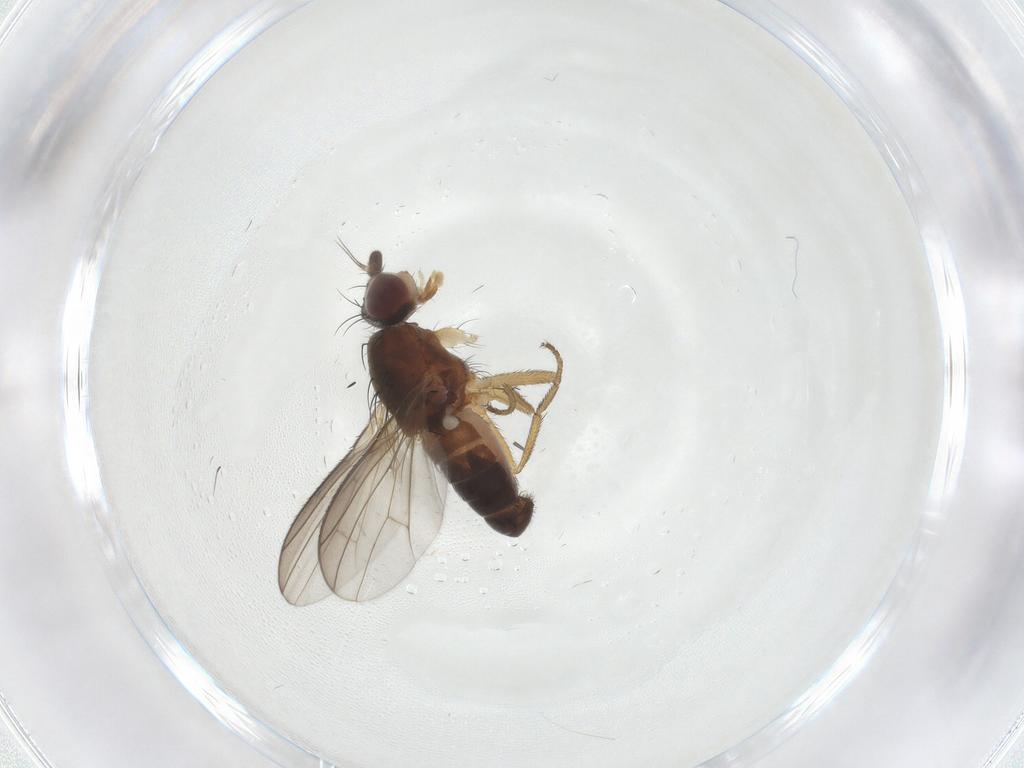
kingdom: Animalia
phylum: Arthropoda
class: Insecta
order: Diptera
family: Heleomyzidae
